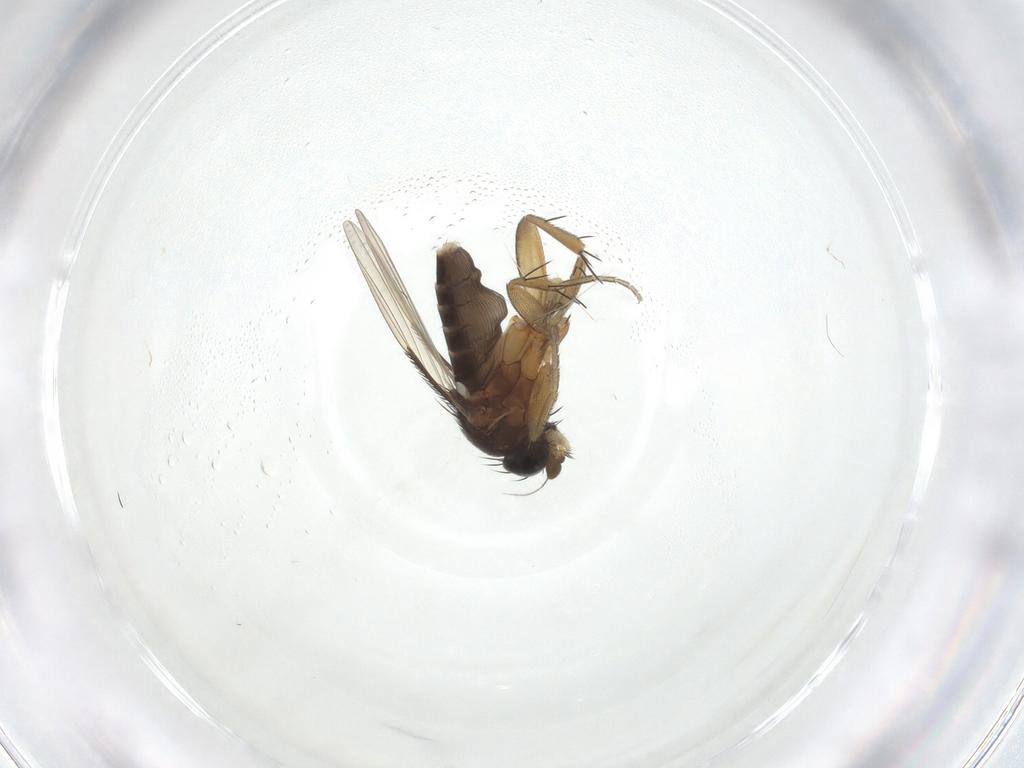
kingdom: Animalia
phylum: Arthropoda
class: Insecta
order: Diptera
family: Phoridae
